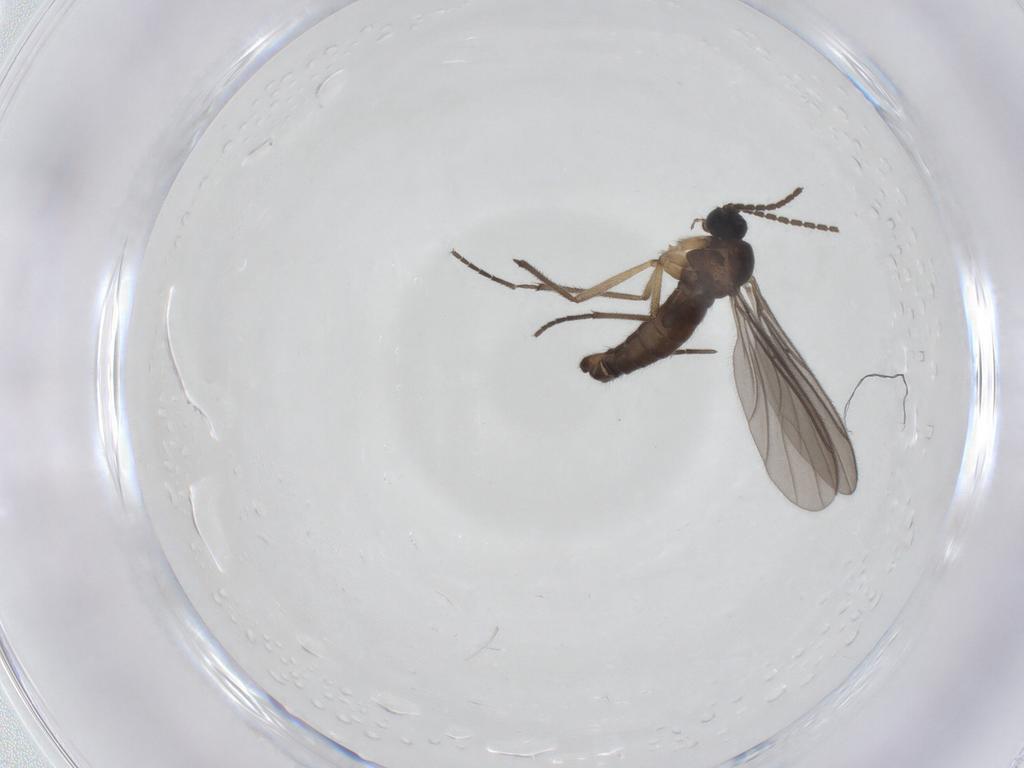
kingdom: Animalia
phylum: Arthropoda
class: Insecta
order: Diptera
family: Sciaridae
